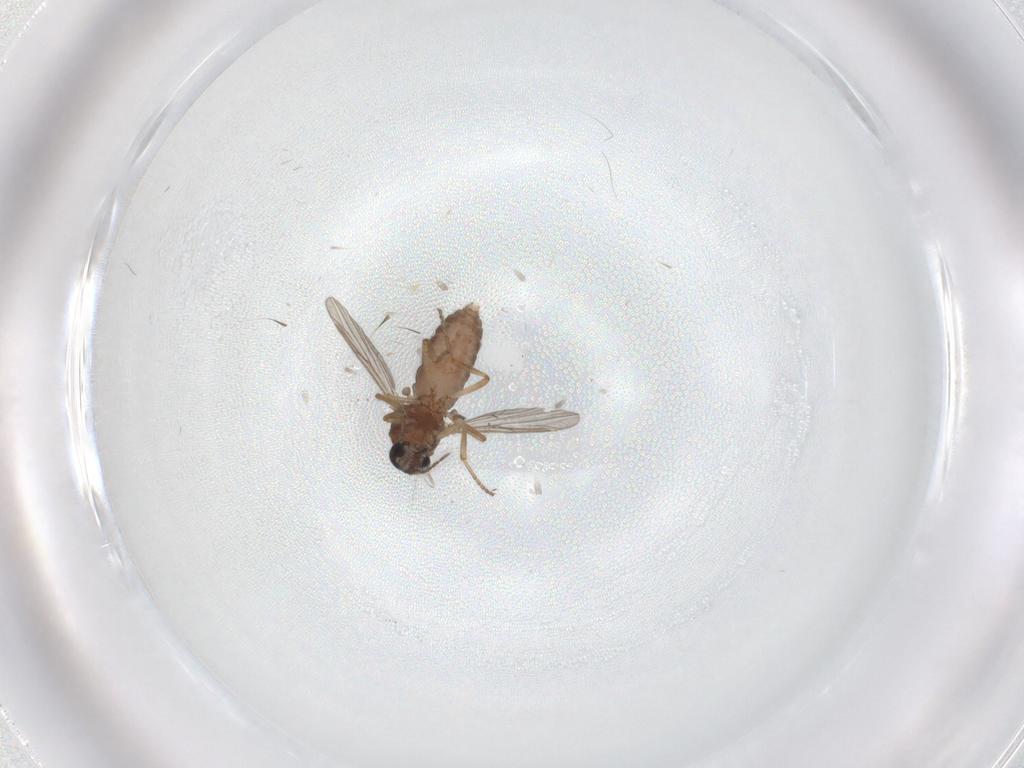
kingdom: Animalia
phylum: Arthropoda
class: Insecta
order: Diptera
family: Ceratopogonidae
